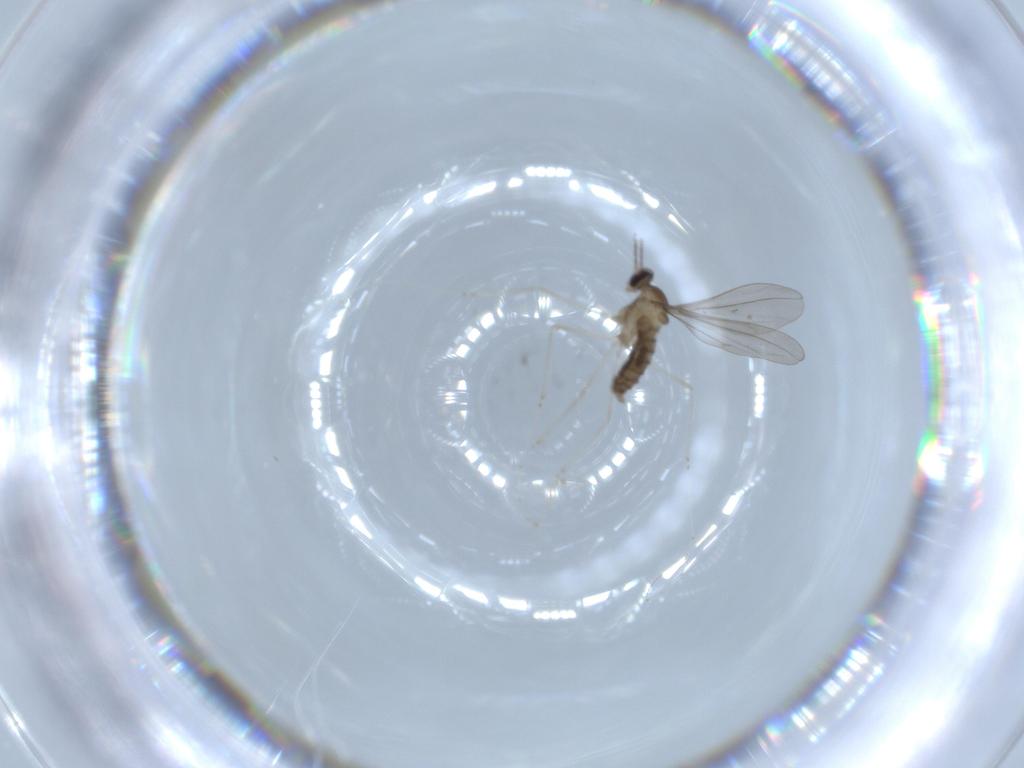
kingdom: Animalia
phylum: Arthropoda
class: Insecta
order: Diptera
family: Cecidomyiidae
